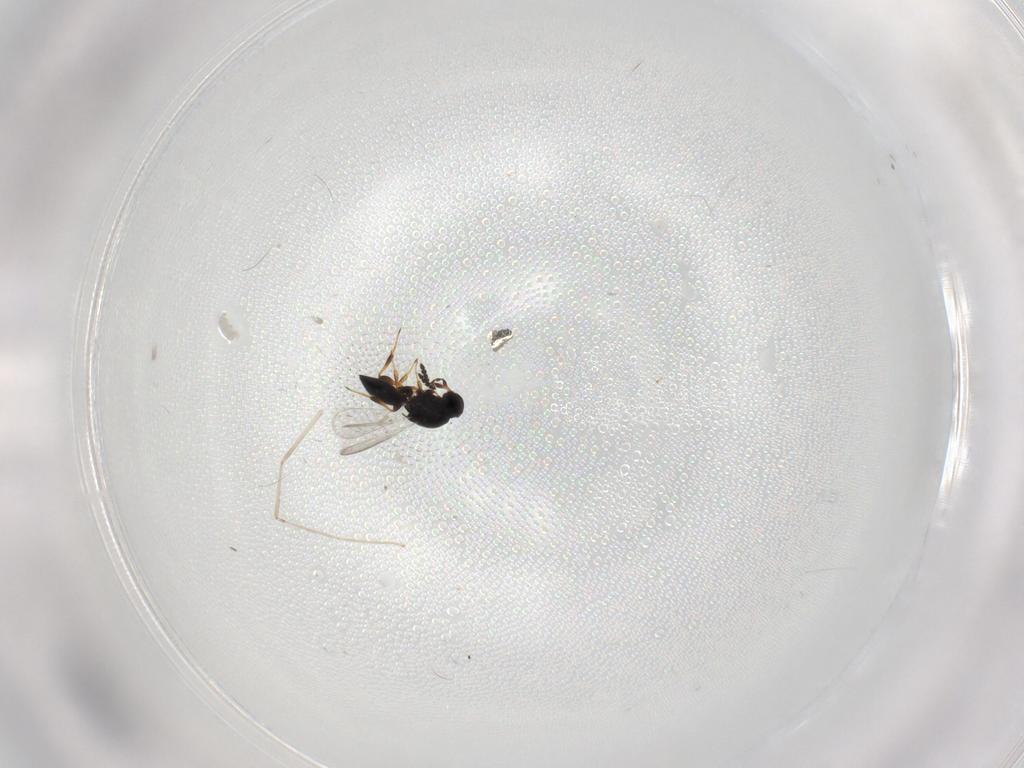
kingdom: Animalia
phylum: Arthropoda
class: Insecta
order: Hymenoptera
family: Platygastridae
